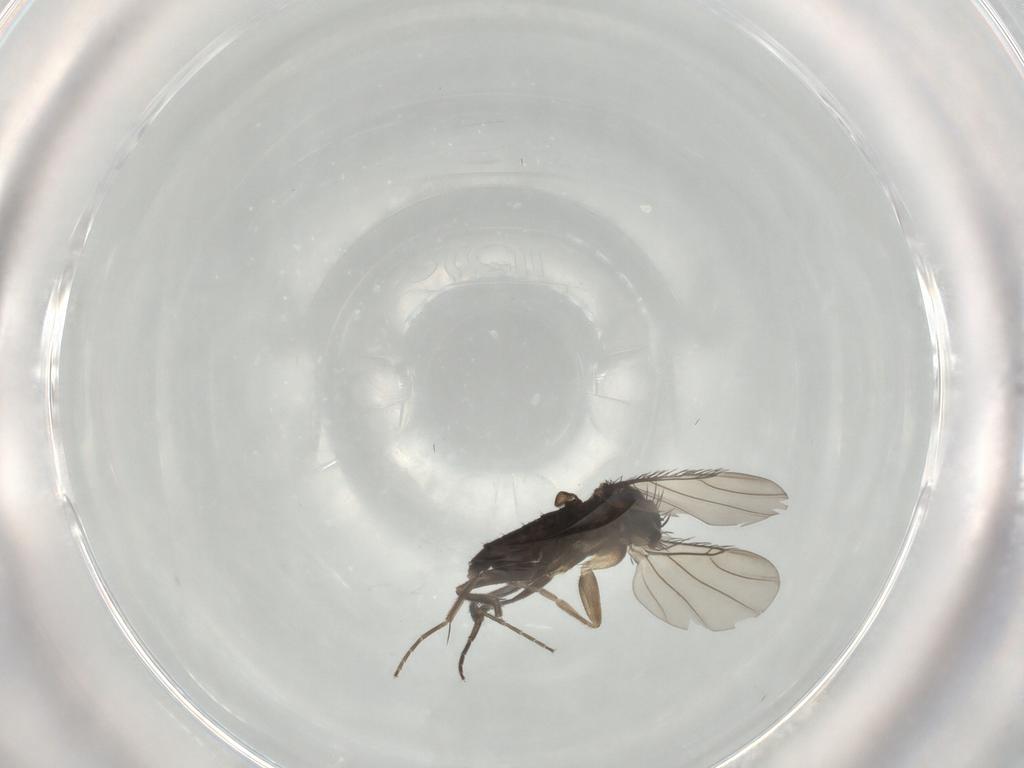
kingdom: Animalia
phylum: Arthropoda
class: Insecta
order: Diptera
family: Phoridae
